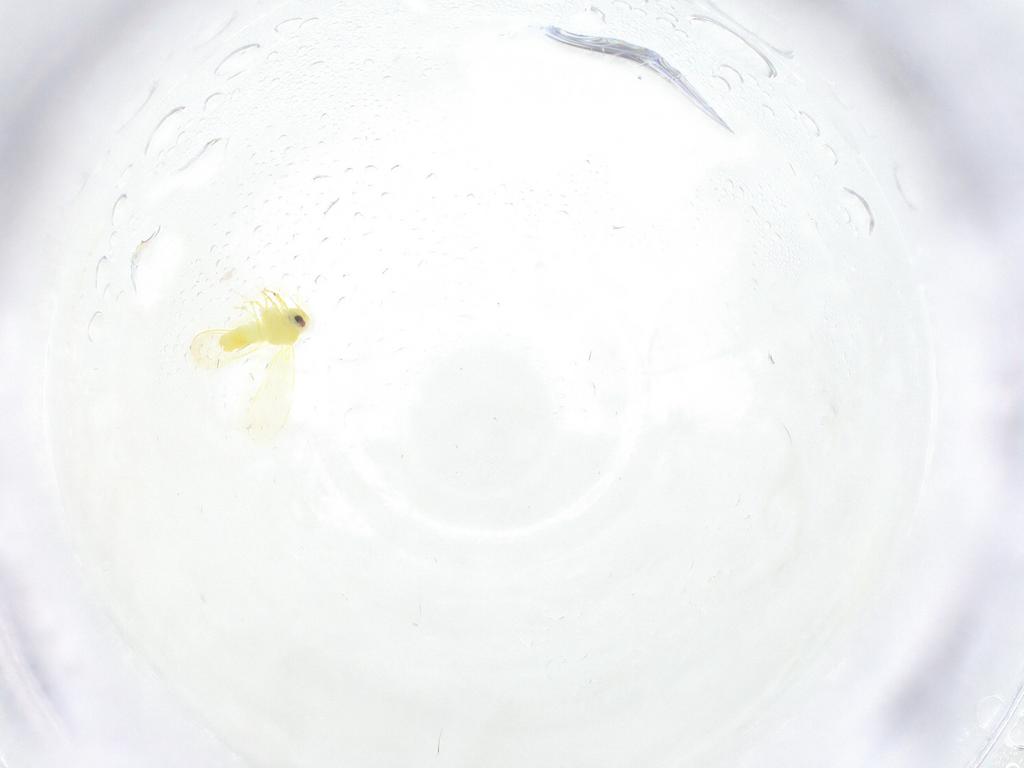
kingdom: Animalia
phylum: Arthropoda
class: Insecta
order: Hemiptera
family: Aleyrodidae
